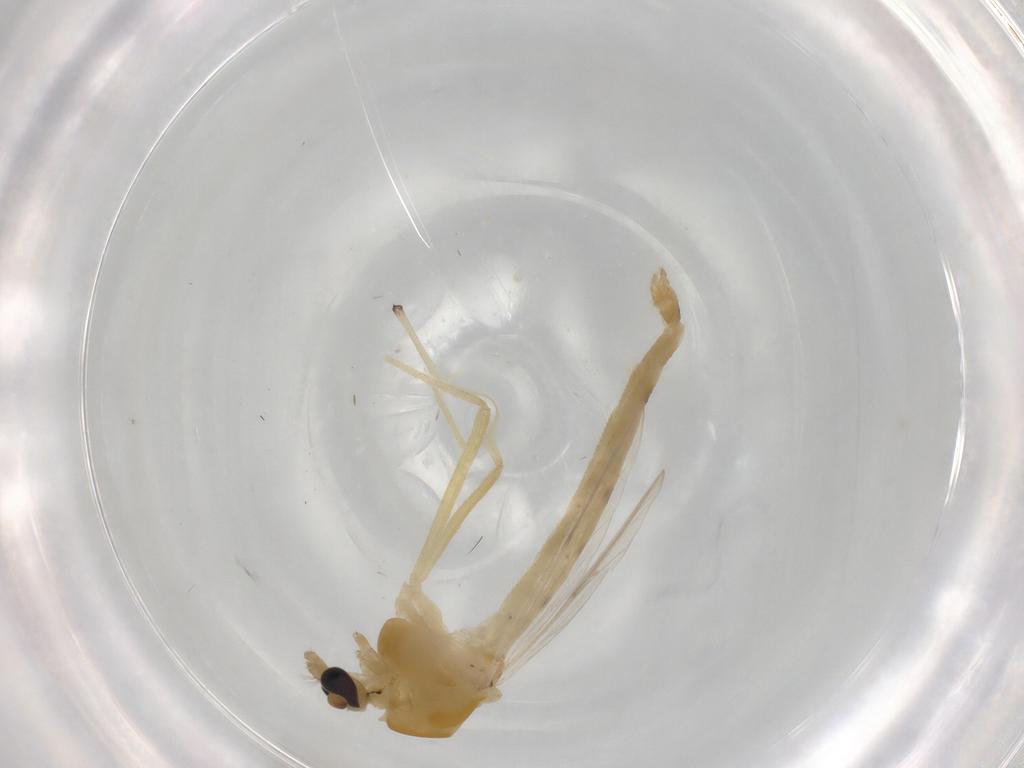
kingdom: Animalia
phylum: Arthropoda
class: Insecta
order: Diptera
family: Chironomidae
